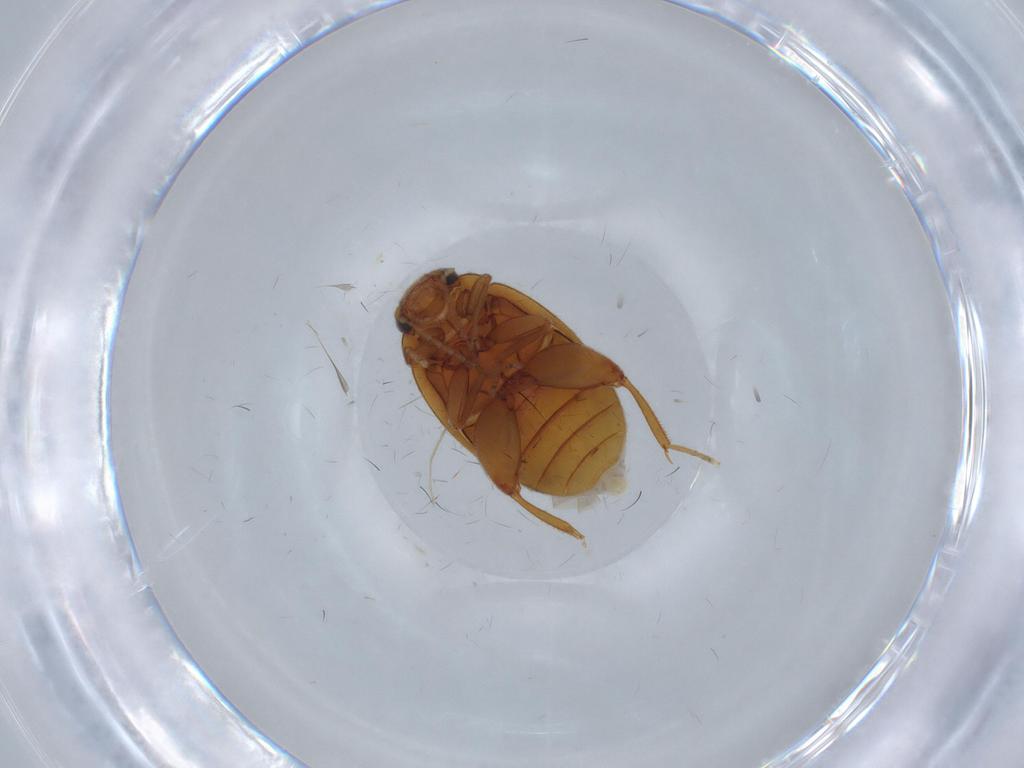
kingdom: Animalia
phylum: Arthropoda
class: Insecta
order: Coleoptera
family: Scirtidae
